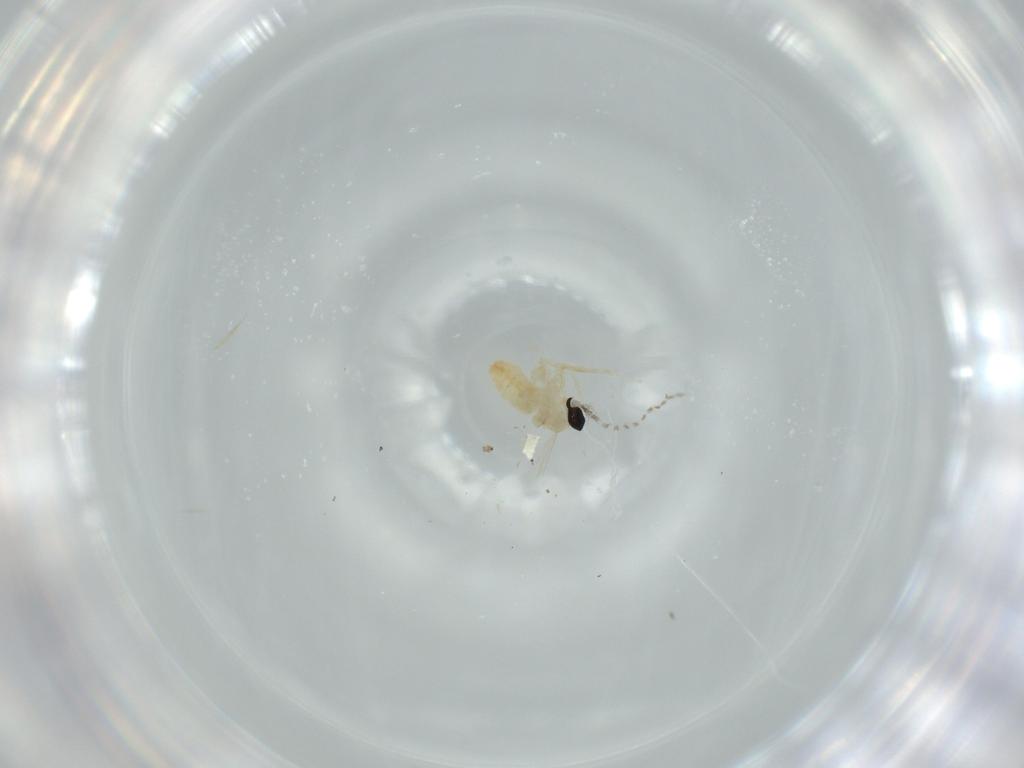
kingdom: Animalia
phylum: Arthropoda
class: Insecta
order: Diptera
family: Cecidomyiidae
